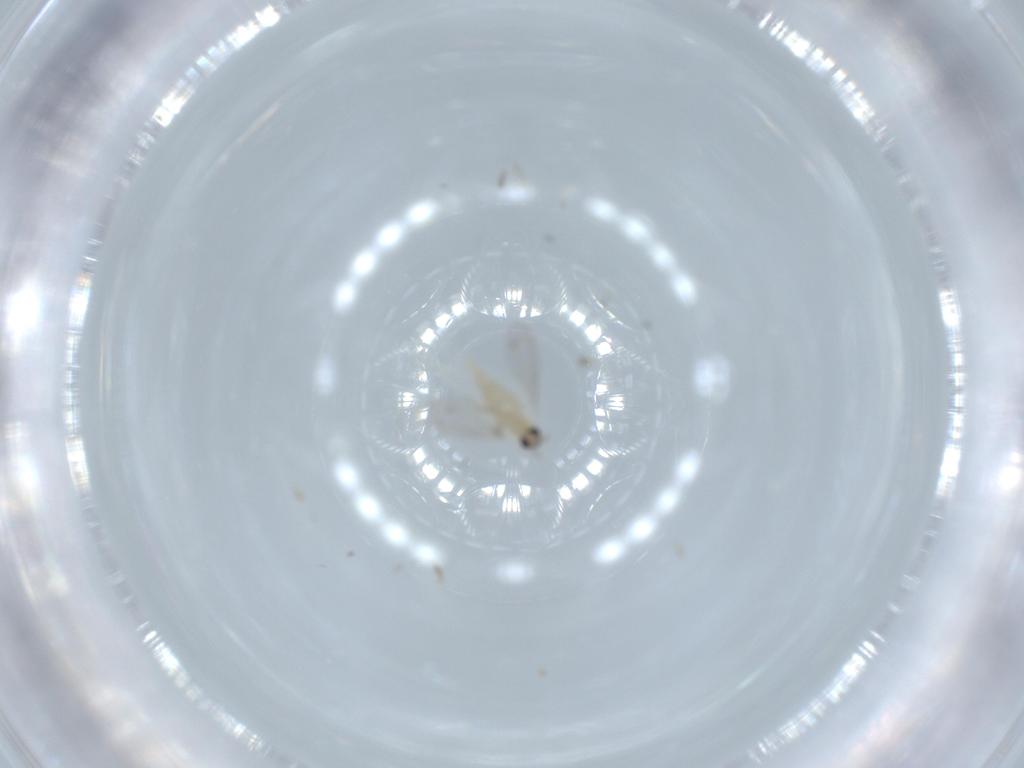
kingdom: Animalia
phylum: Arthropoda
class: Insecta
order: Diptera
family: Cecidomyiidae
